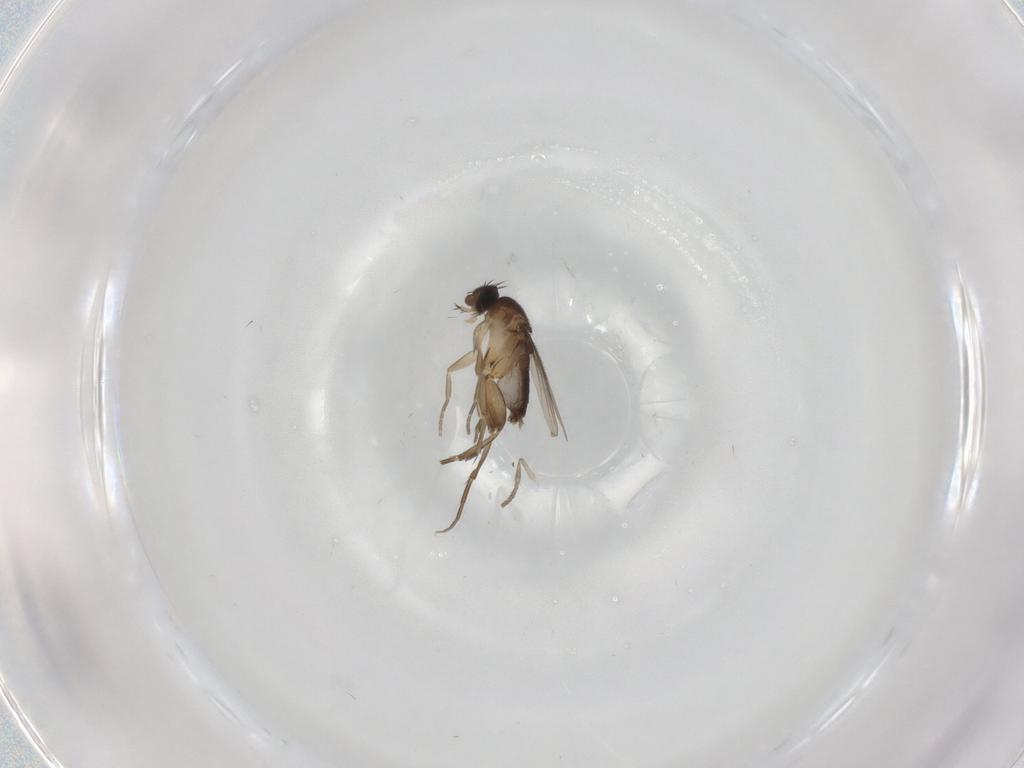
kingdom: Animalia
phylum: Arthropoda
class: Insecta
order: Diptera
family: Psychodidae
